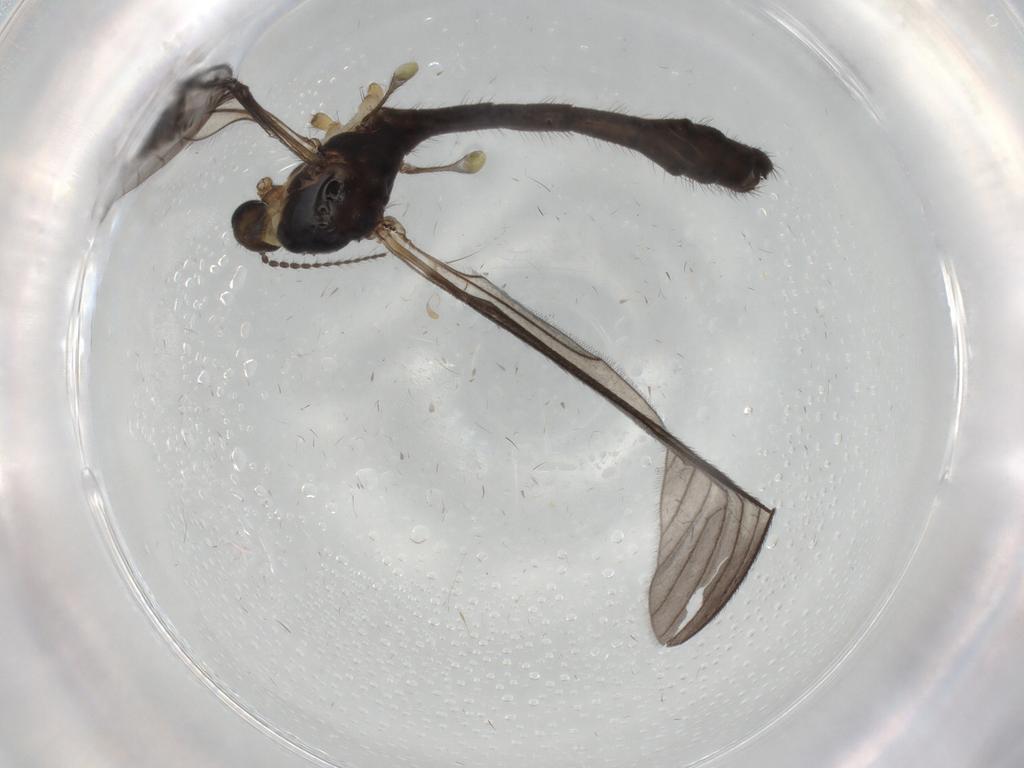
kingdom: Animalia
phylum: Arthropoda
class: Insecta
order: Diptera
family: Limoniidae
